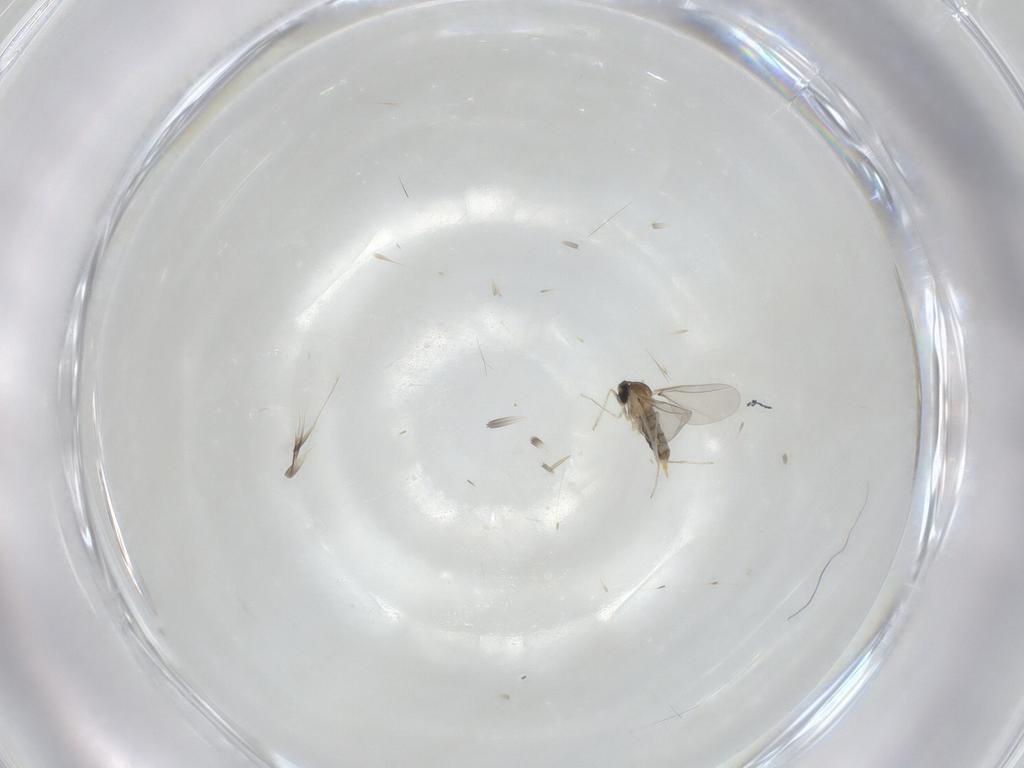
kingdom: Animalia
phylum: Arthropoda
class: Insecta
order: Diptera
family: Cecidomyiidae
